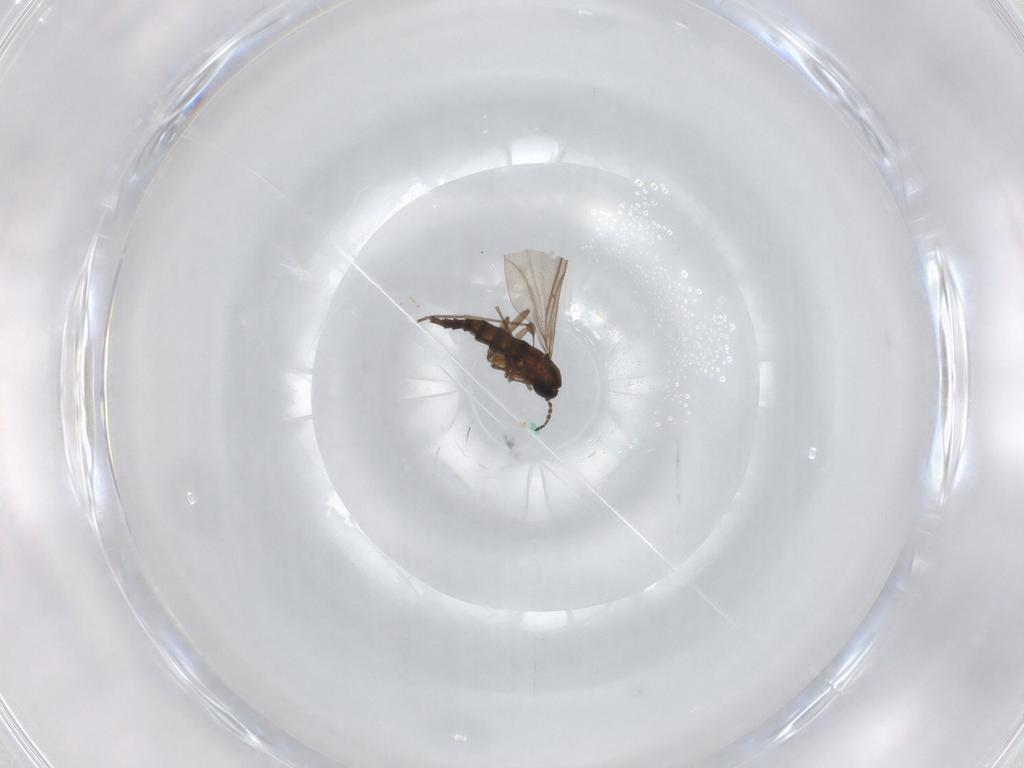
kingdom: Animalia
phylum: Arthropoda
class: Insecta
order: Diptera
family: Sciaridae
